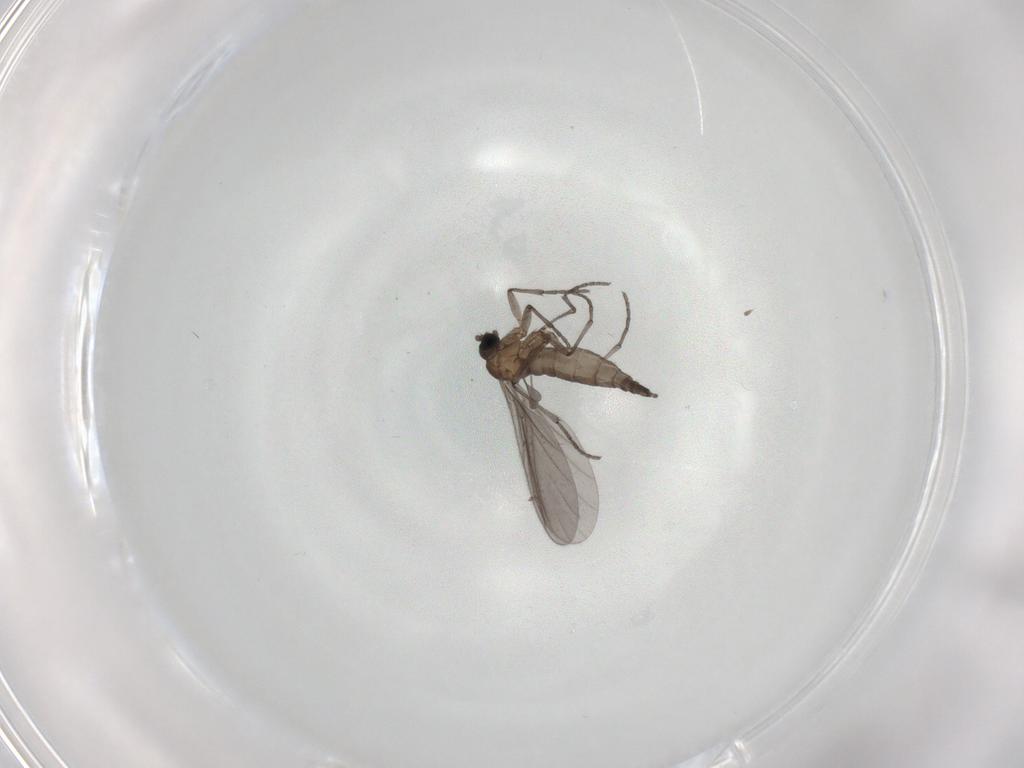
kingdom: Animalia
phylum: Arthropoda
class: Insecta
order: Diptera
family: Sciaridae
